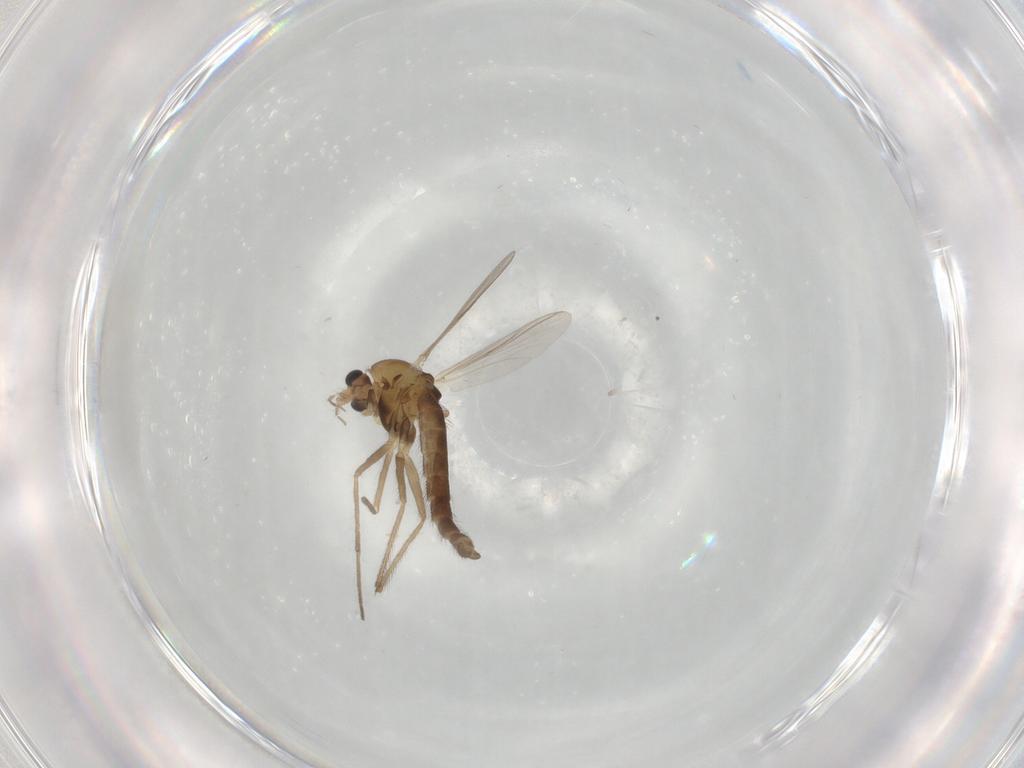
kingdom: Animalia
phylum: Arthropoda
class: Insecta
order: Diptera
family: Chironomidae
